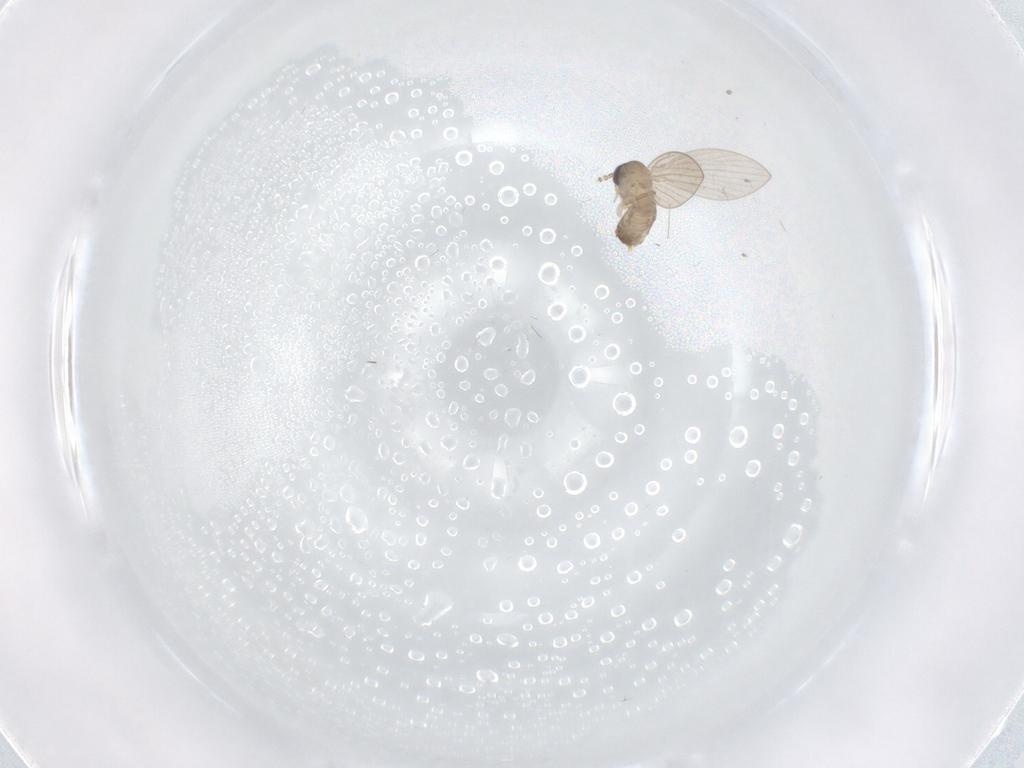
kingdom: Animalia
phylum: Arthropoda
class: Insecta
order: Diptera
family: Psychodidae
